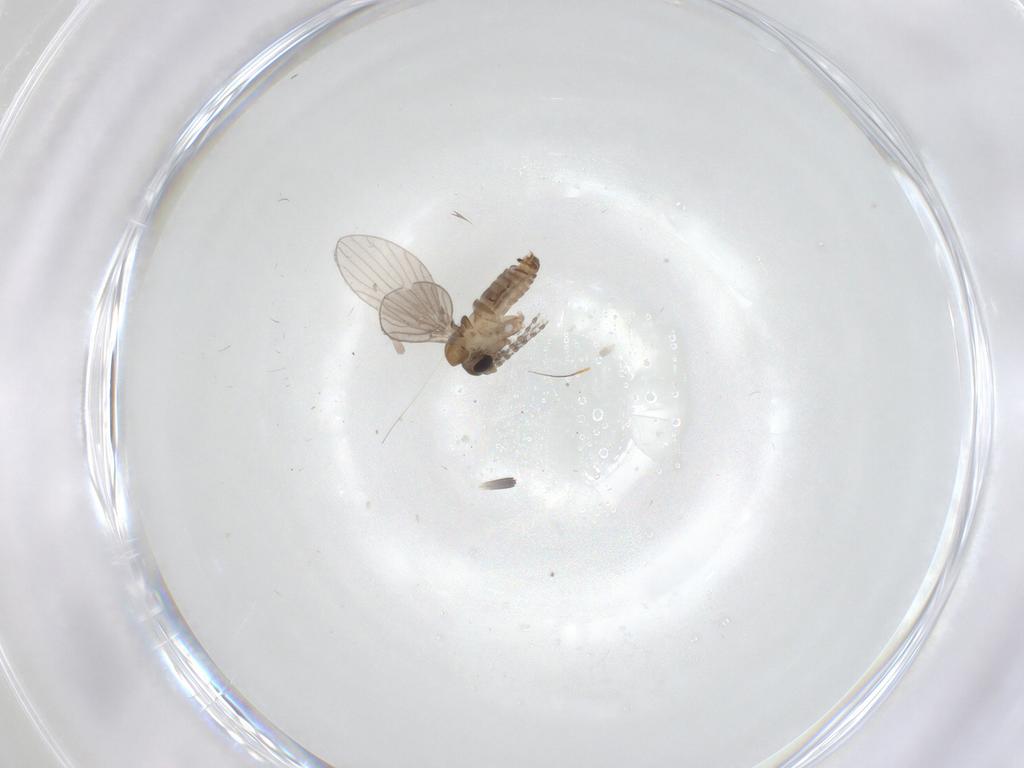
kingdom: Animalia
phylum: Arthropoda
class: Insecta
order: Diptera
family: Phoridae
